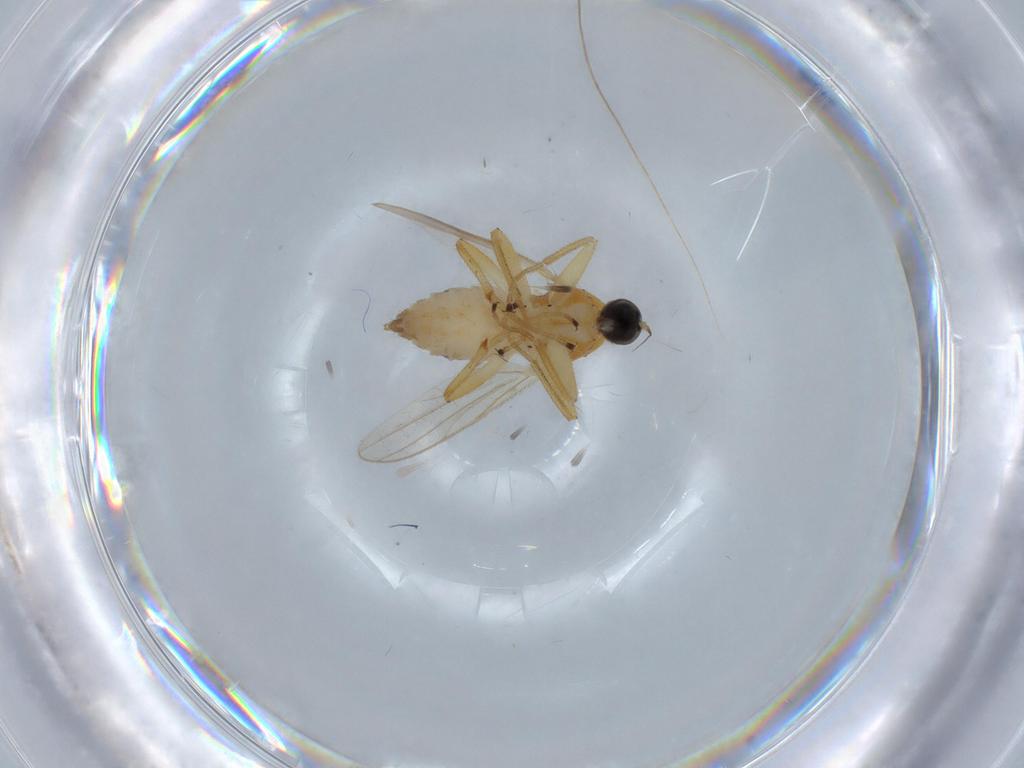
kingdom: Animalia
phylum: Arthropoda
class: Insecta
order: Diptera
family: Hybotidae
